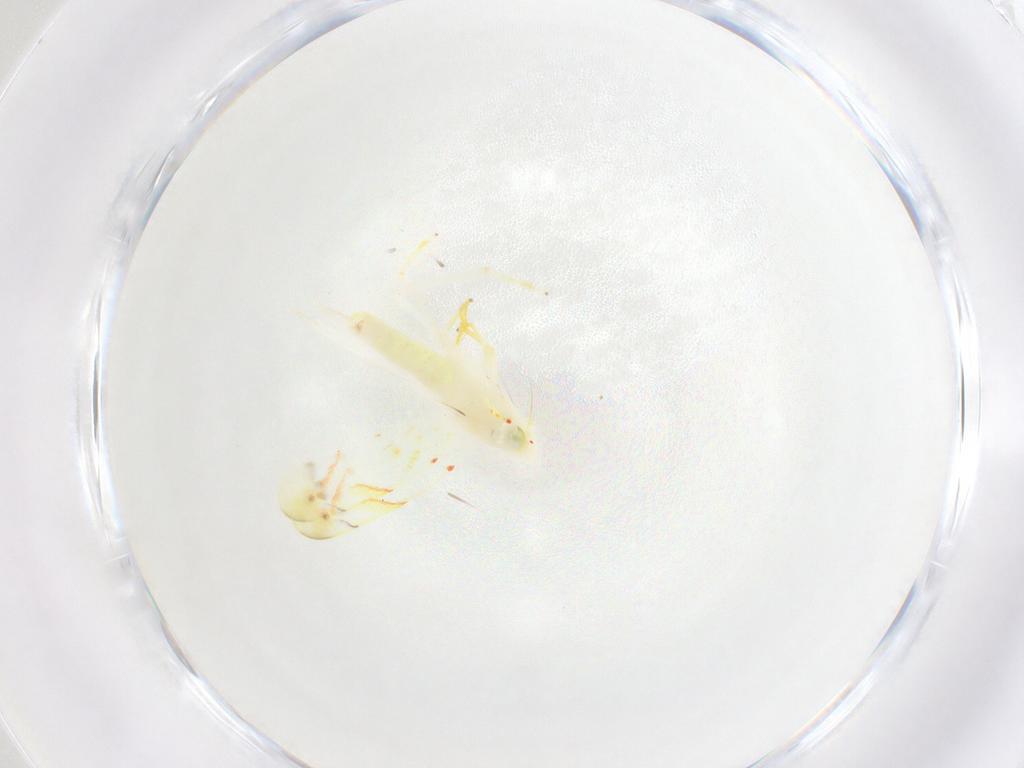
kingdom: Animalia
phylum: Arthropoda
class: Insecta
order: Hemiptera
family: Cicadellidae
